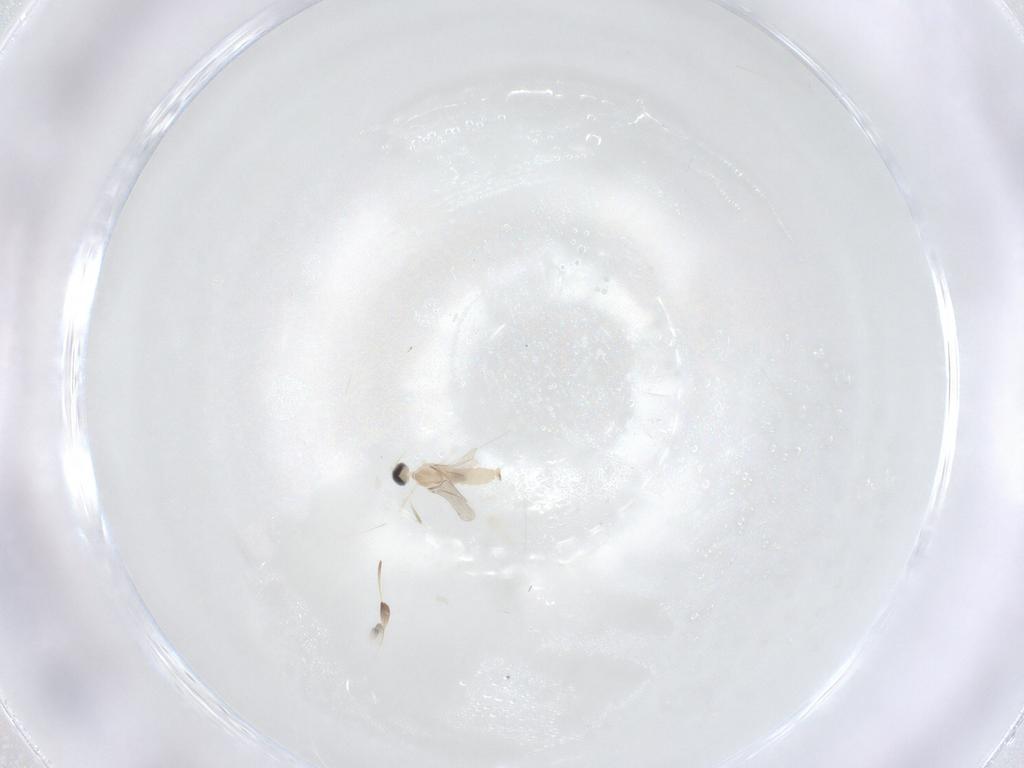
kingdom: Animalia
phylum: Arthropoda
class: Insecta
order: Diptera
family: Cecidomyiidae
